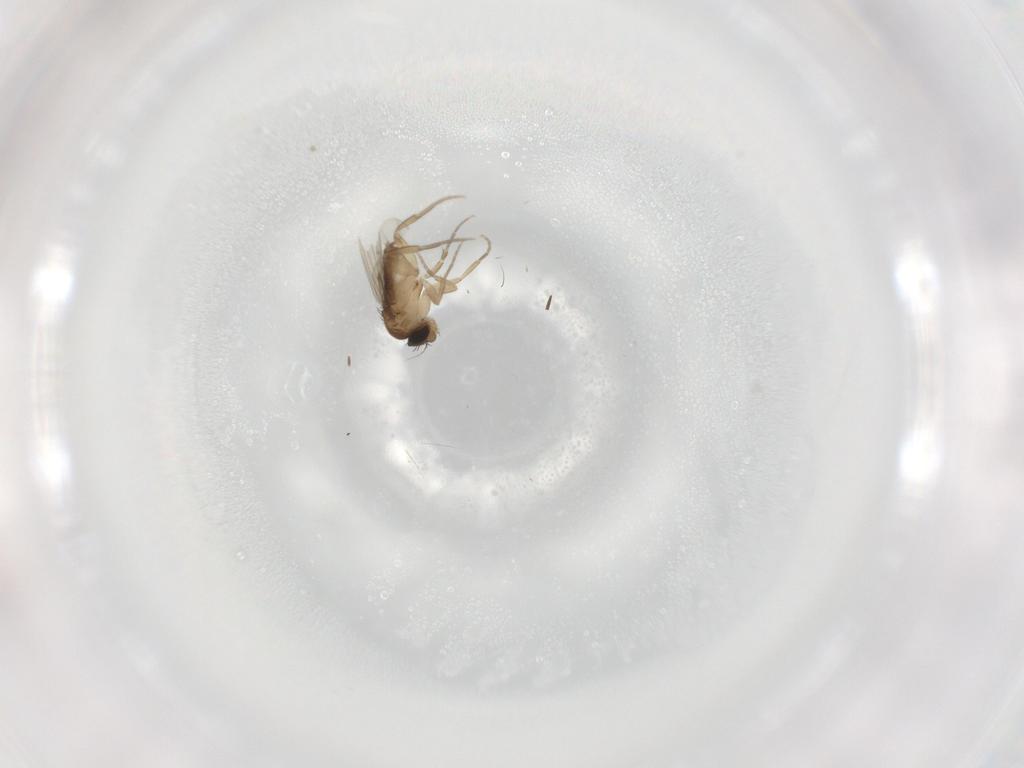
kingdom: Animalia
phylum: Arthropoda
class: Insecta
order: Diptera
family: Phoridae
